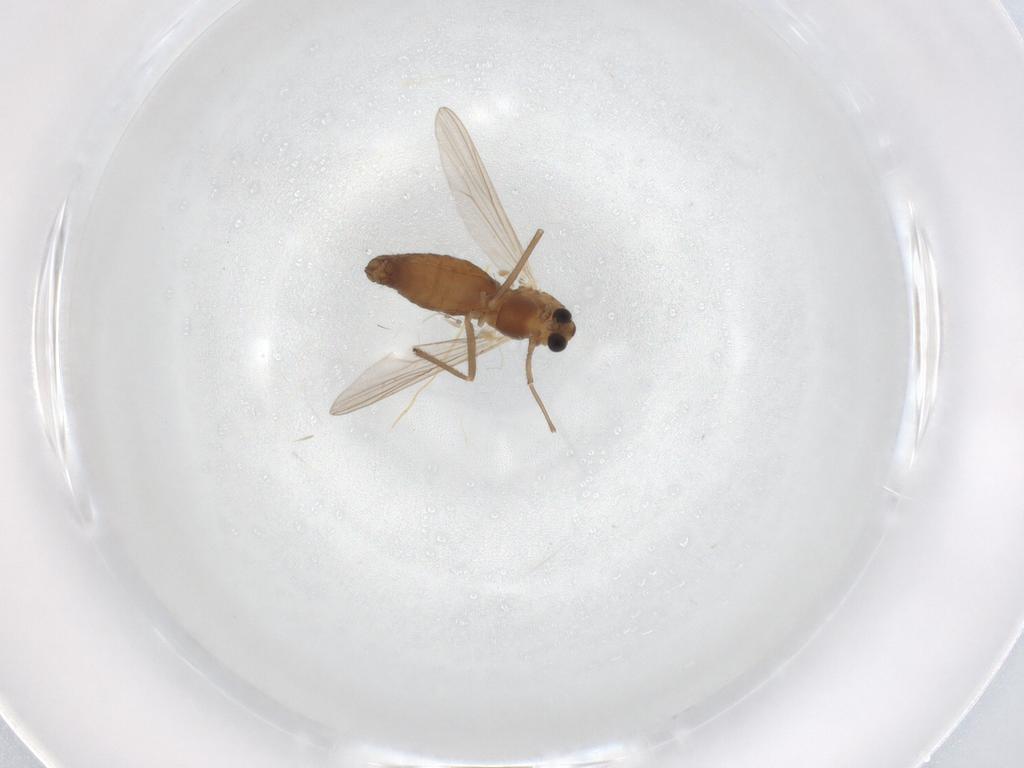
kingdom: Animalia
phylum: Arthropoda
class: Insecta
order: Diptera
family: Chironomidae
